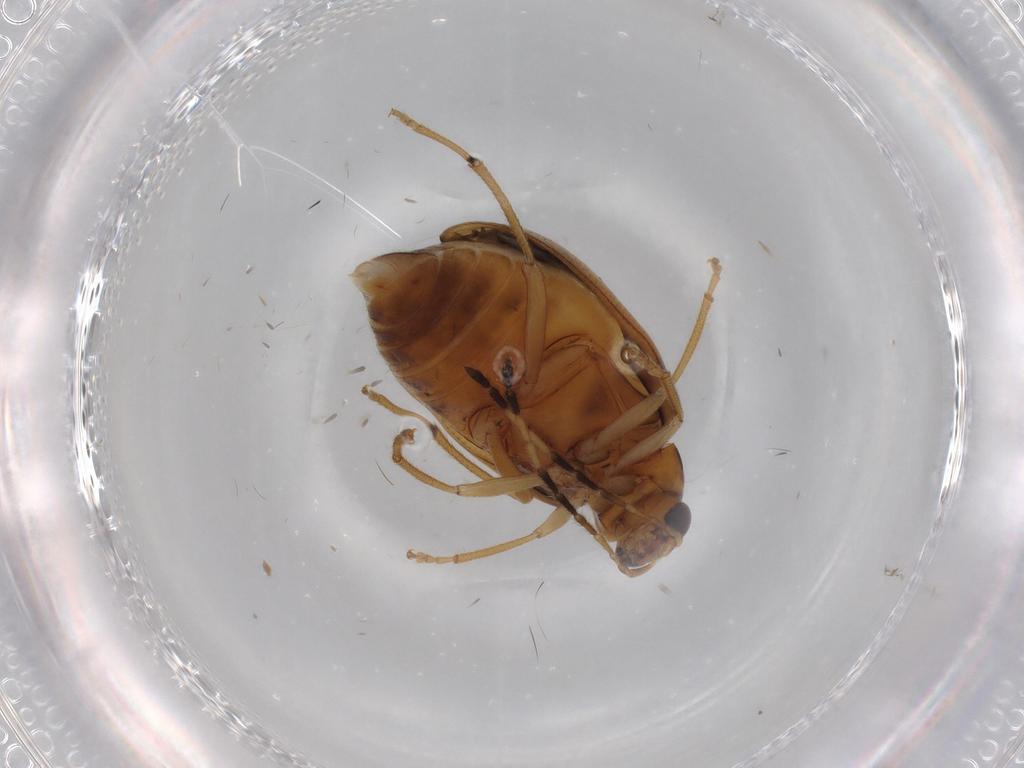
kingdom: Animalia
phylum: Arthropoda
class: Insecta
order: Coleoptera
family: Chrysomelidae
